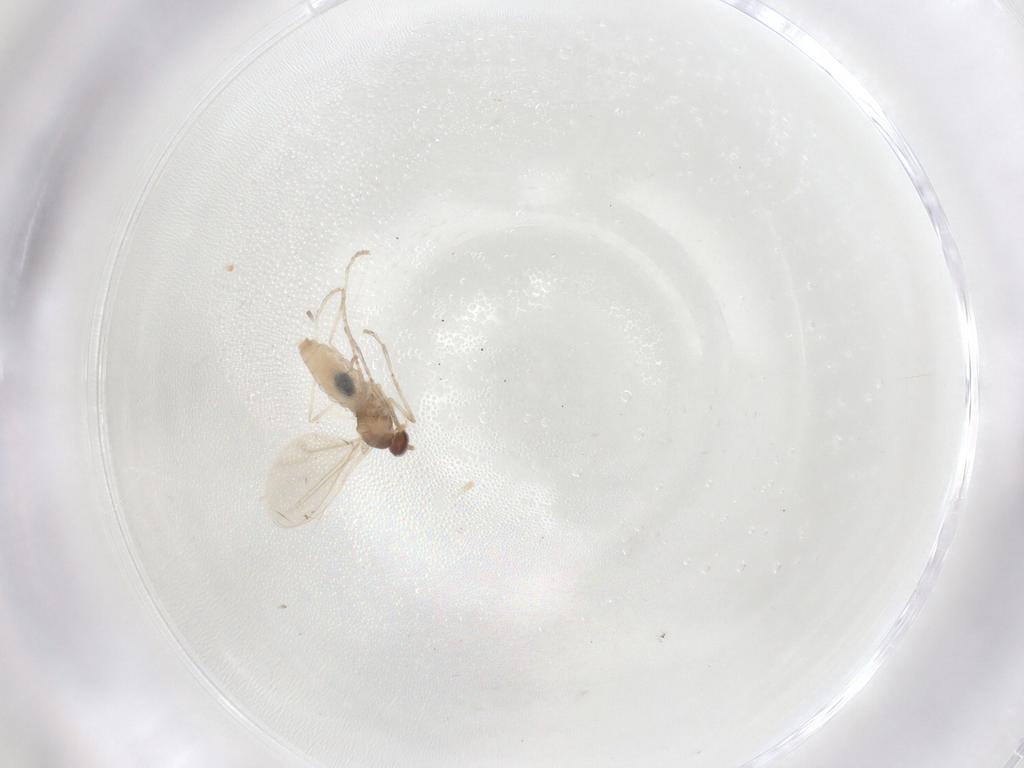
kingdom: Animalia
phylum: Arthropoda
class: Insecta
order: Diptera
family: Cecidomyiidae
